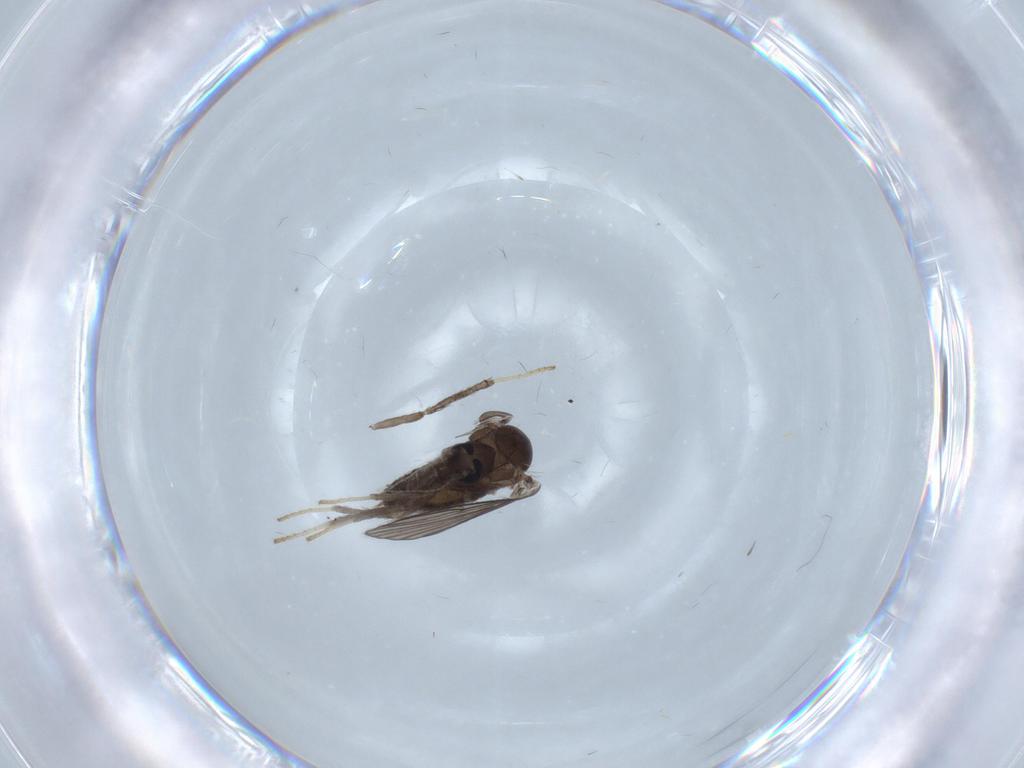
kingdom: Animalia
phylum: Arthropoda
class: Insecta
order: Diptera
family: Psychodidae
